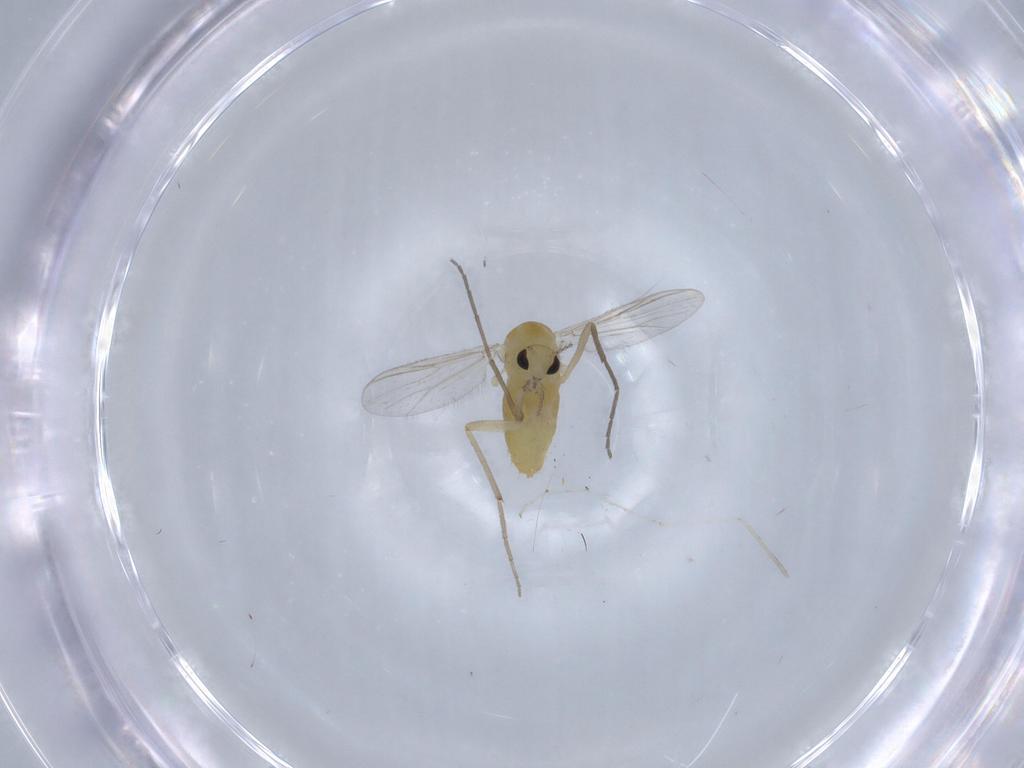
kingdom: Animalia
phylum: Arthropoda
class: Insecta
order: Diptera
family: Chironomidae
